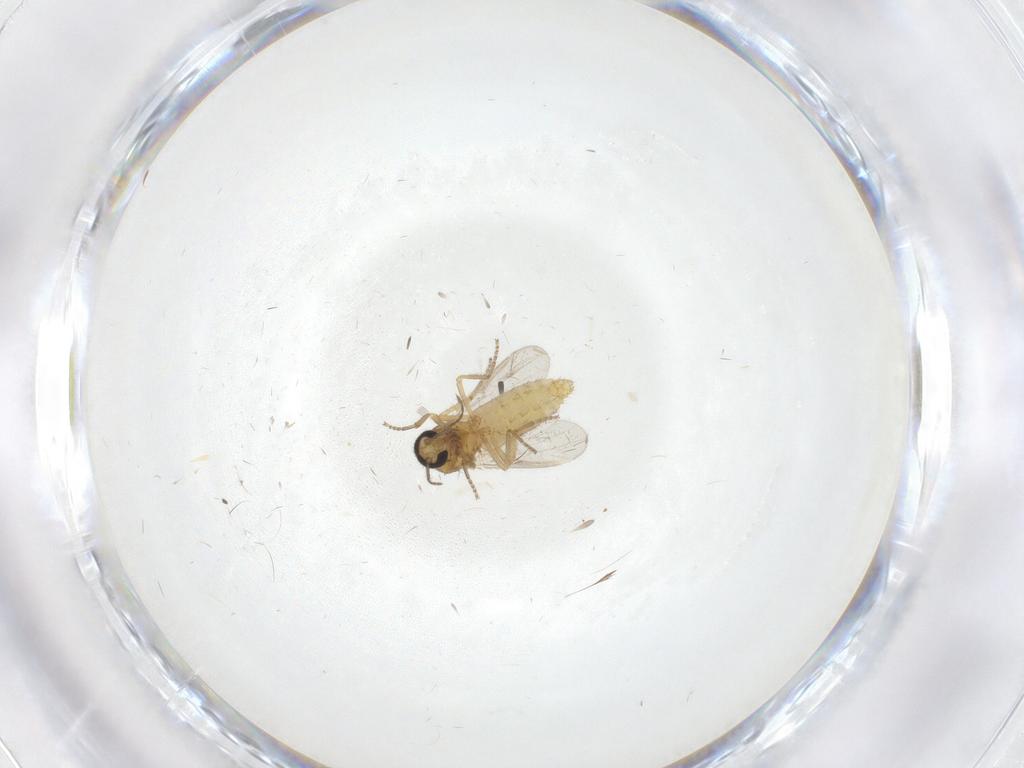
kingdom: Animalia
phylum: Arthropoda
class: Insecta
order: Diptera
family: Ceratopogonidae
